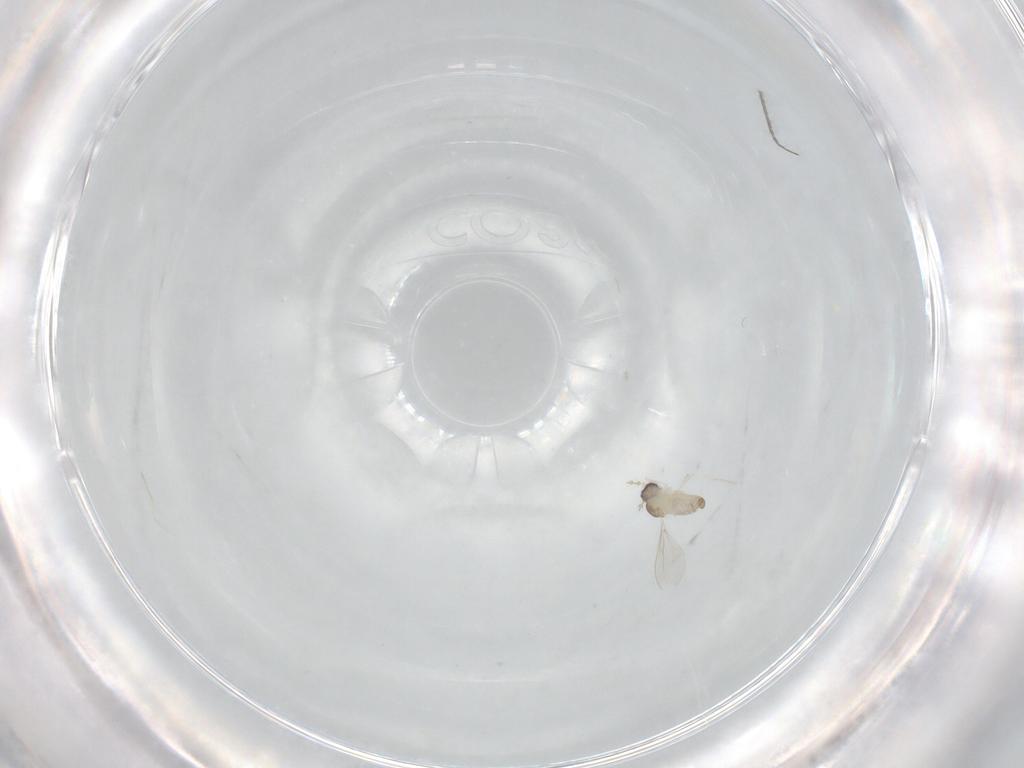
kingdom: Animalia
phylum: Arthropoda
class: Insecta
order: Diptera
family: Cecidomyiidae
